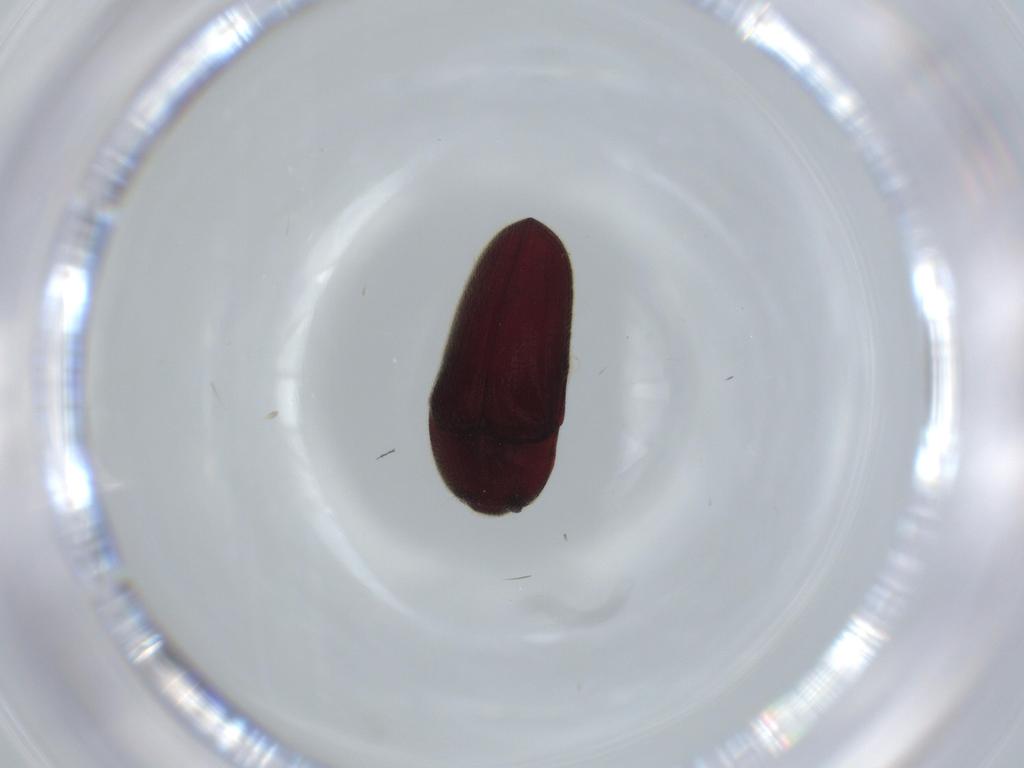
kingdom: Animalia
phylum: Arthropoda
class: Insecta
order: Coleoptera
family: Throscidae
